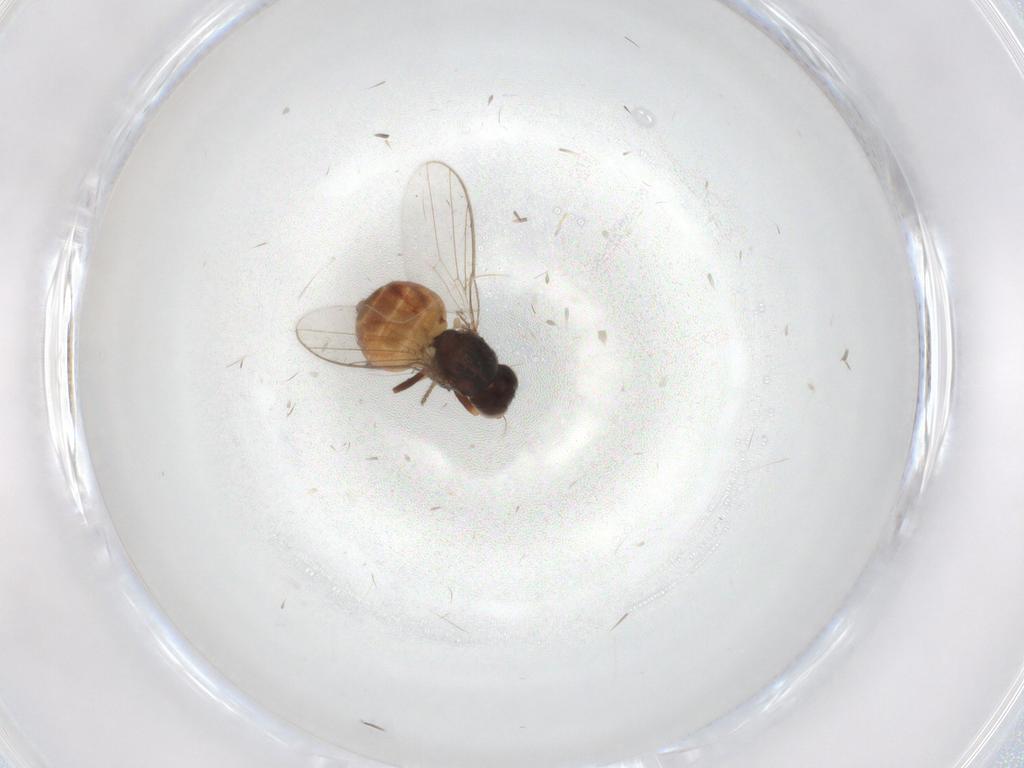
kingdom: Animalia
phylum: Arthropoda
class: Insecta
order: Diptera
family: Chloropidae
